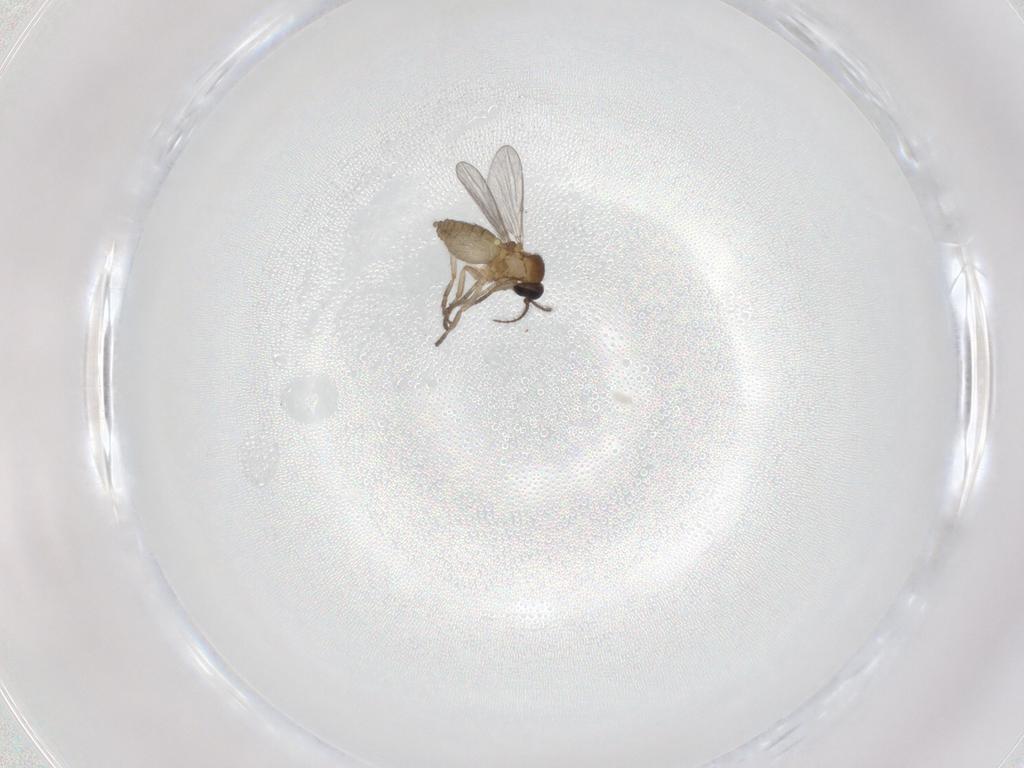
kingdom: Animalia
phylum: Arthropoda
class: Insecta
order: Diptera
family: Ceratopogonidae
